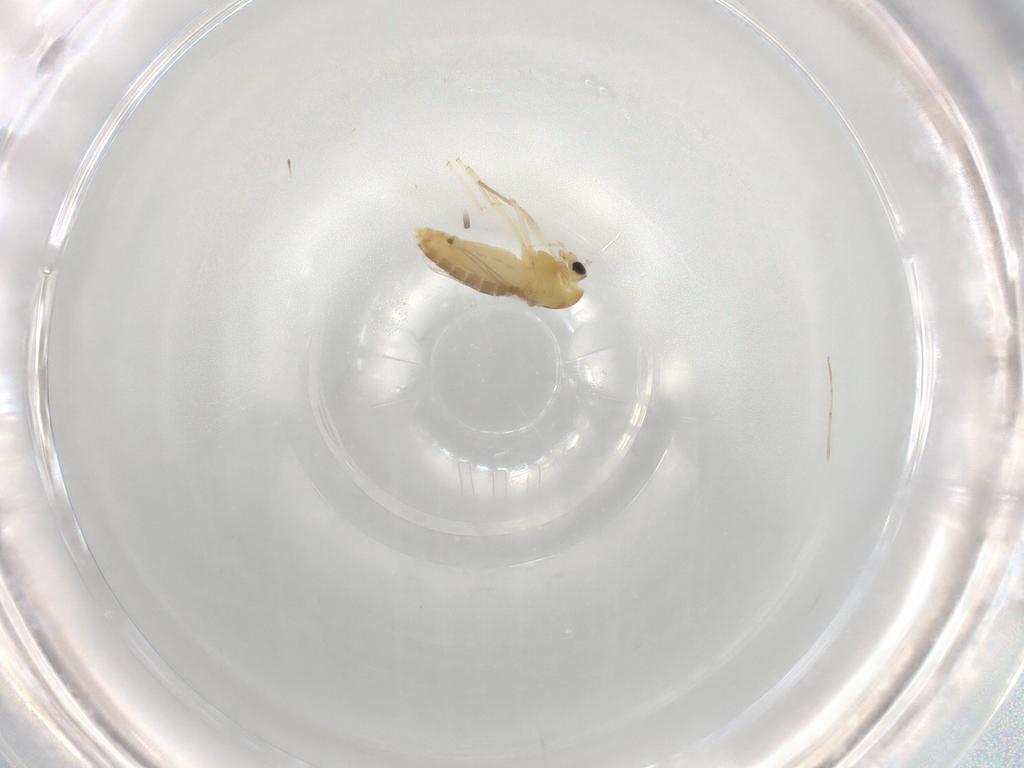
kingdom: Animalia
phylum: Arthropoda
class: Insecta
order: Diptera
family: Chironomidae
